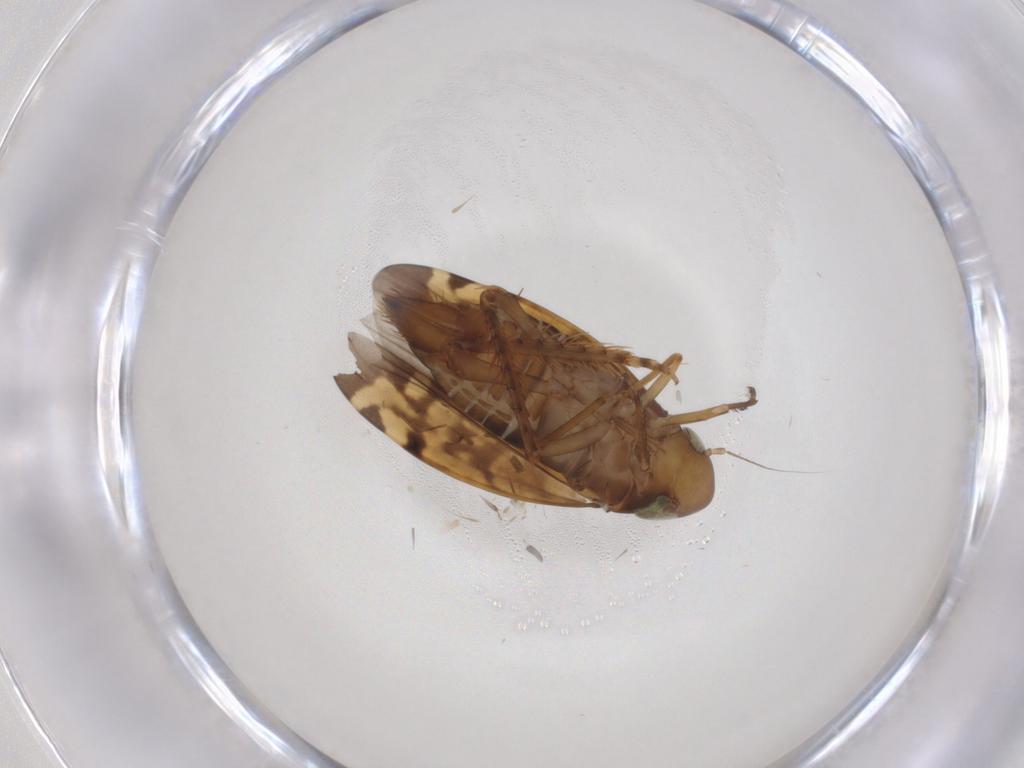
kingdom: Animalia
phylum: Arthropoda
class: Insecta
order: Hemiptera
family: Cicadellidae
